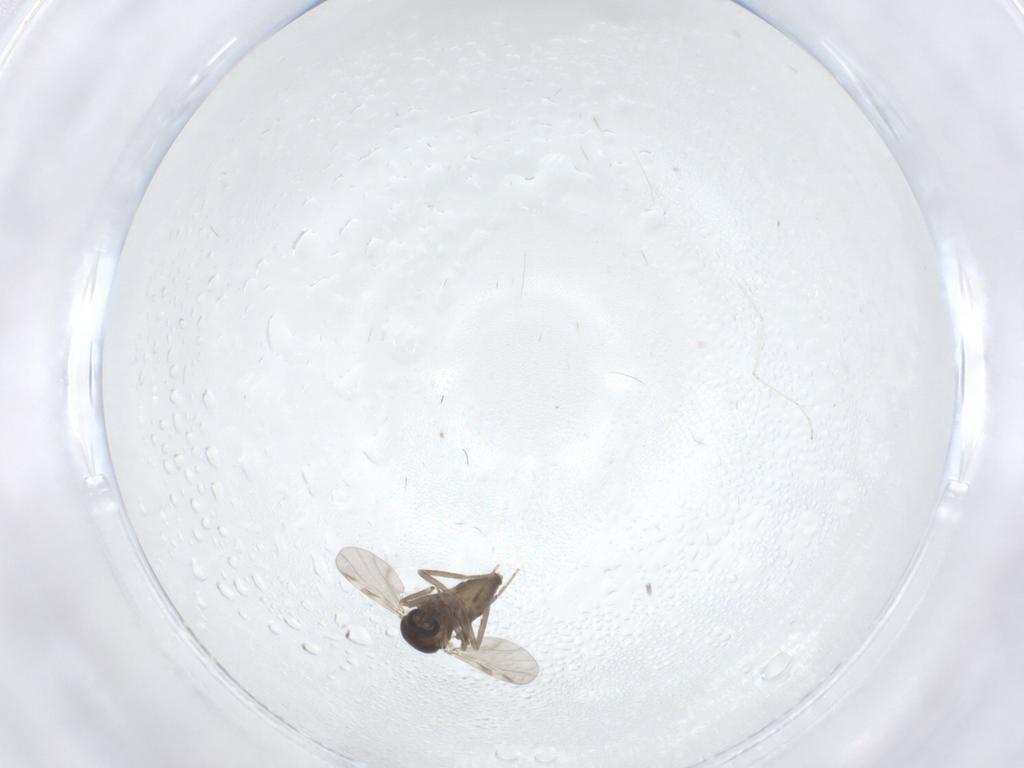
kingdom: Animalia
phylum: Arthropoda
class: Insecta
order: Diptera
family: Ceratopogonidae
